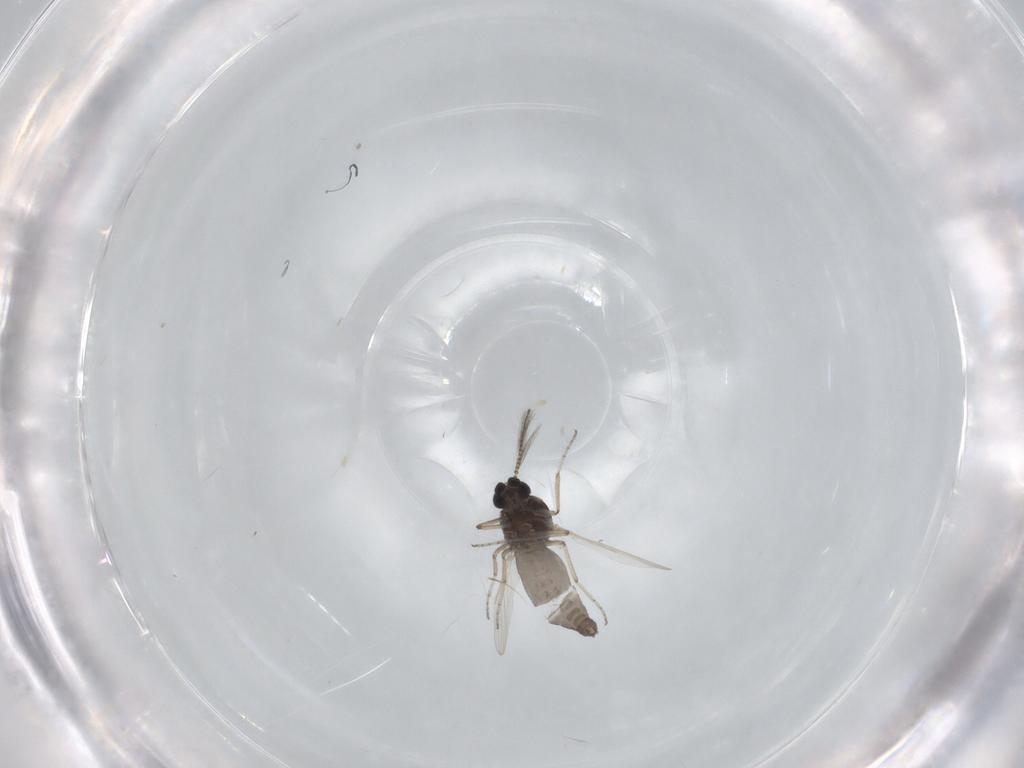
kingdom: Animalia
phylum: Arthropoda
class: Insecta
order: Diptera
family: Ceratopogonidae
